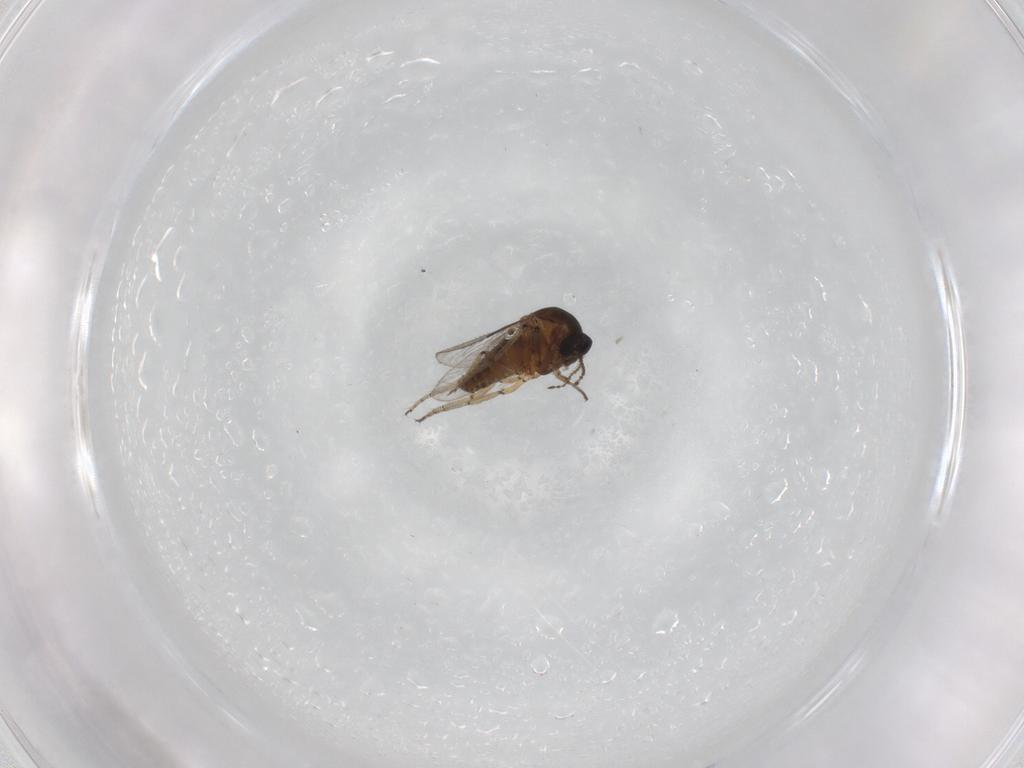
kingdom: Animalia
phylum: Arthropoda
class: Insecta
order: Diptera
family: Ceratopogonidae
